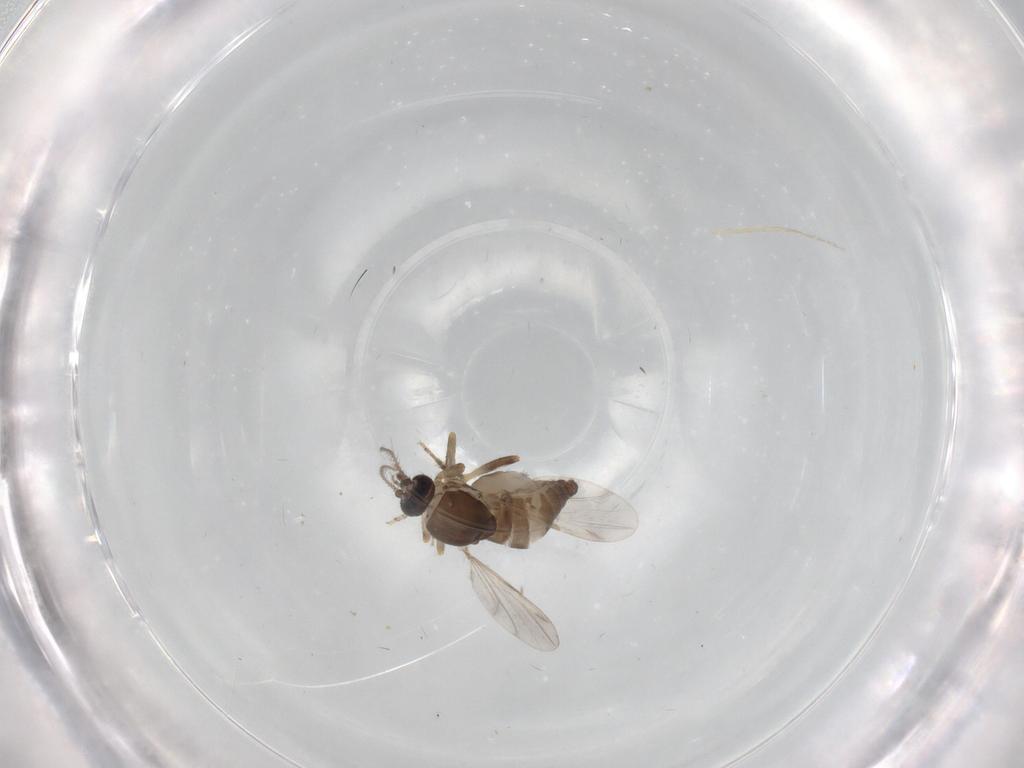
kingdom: Animalia
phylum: Arthropoda
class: Insecta
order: Diptera
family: Ceratopogonidae
